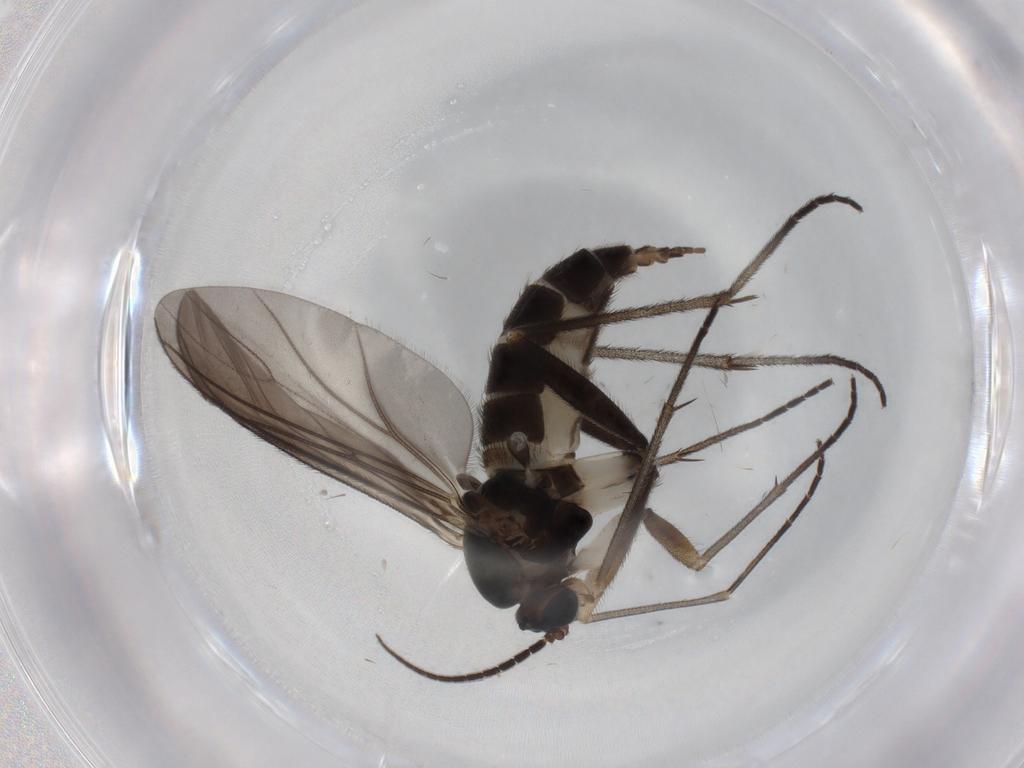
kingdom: Animalia
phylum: Arthropoda
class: Insecta
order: Diptera
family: Sciaridae
